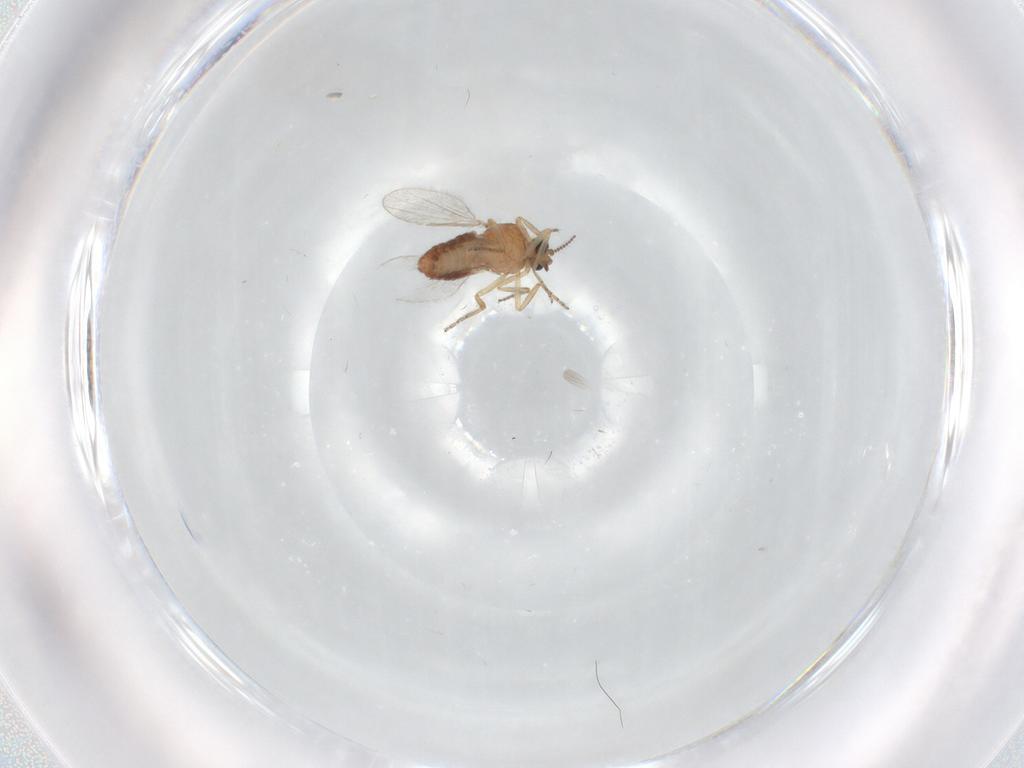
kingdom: Animalia
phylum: Arthropoda
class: Insecta
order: Diptera
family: Ceratopogonidae
